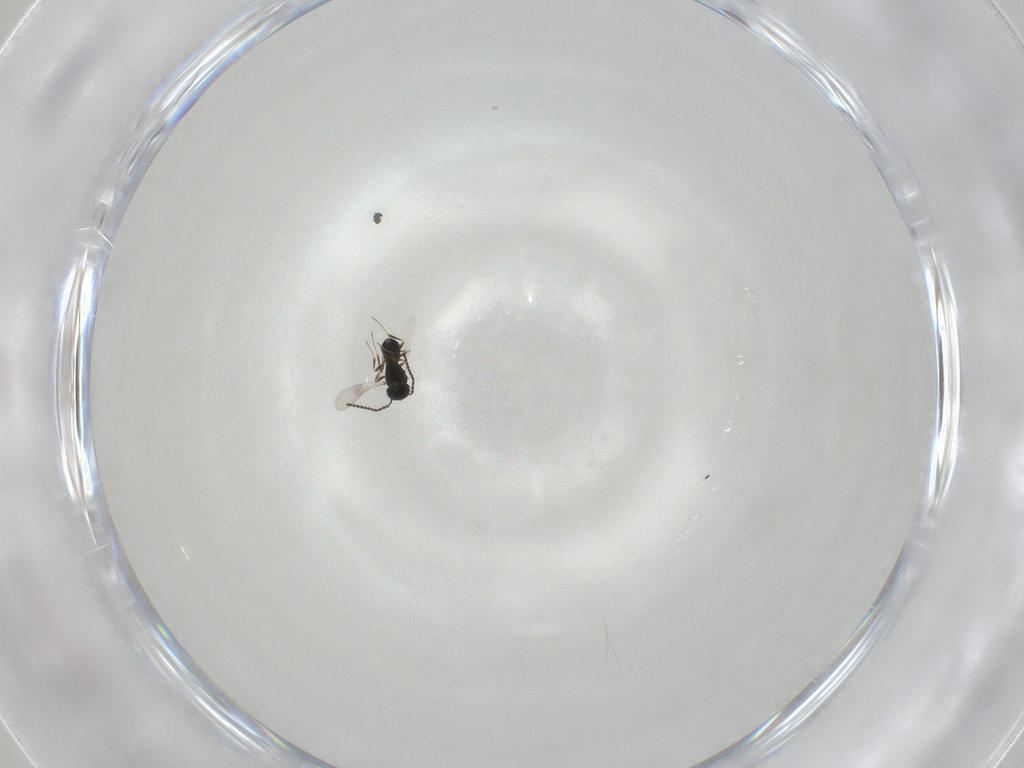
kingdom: Animalia
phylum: Arthropoda
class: Insecta
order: Hymenoptera
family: Scelionidae
